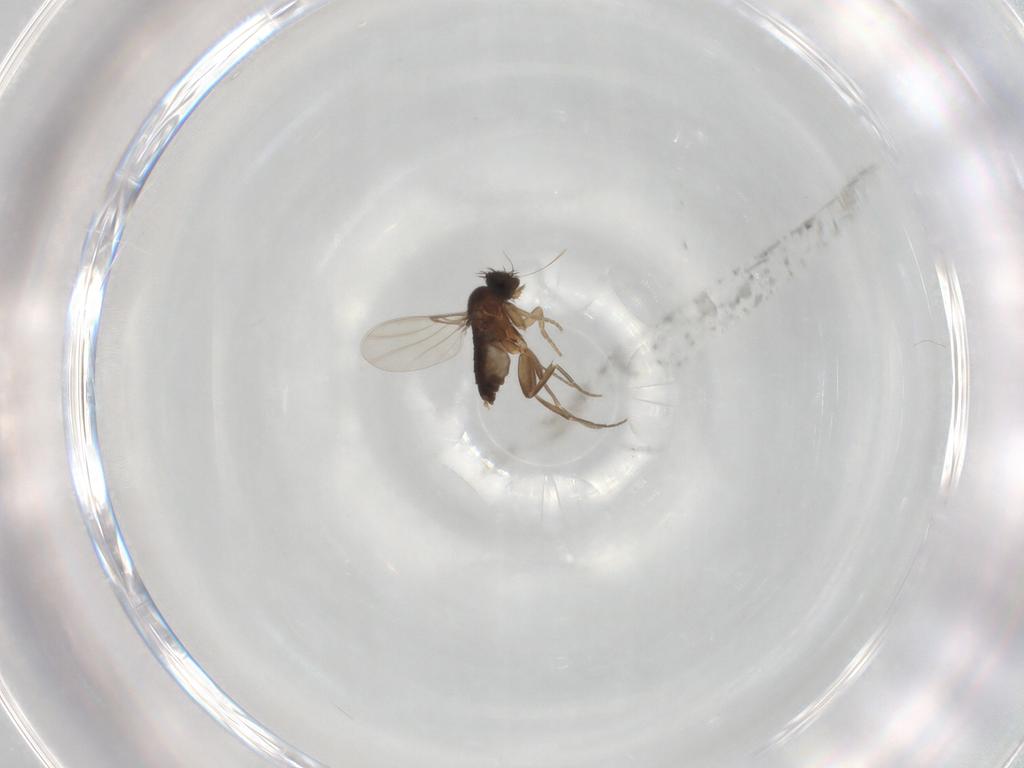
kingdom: Animalia
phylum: Arthropoda
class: Insecta
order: Diptera
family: Phoridae
